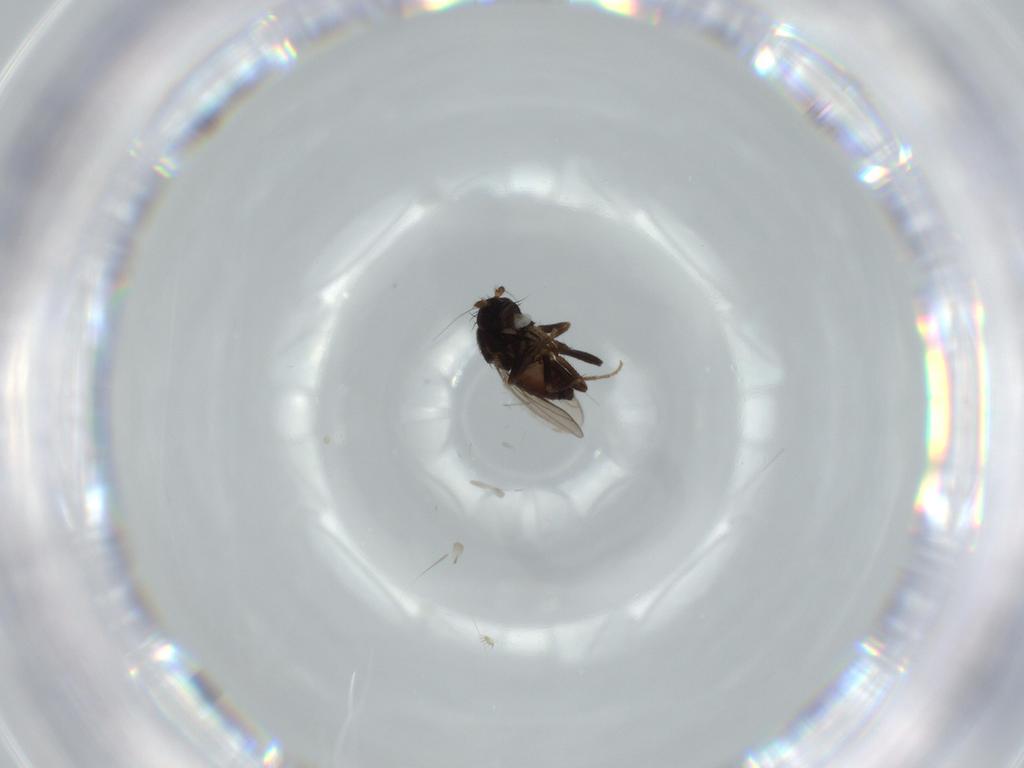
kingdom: Animalia
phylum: Arthropoda
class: Insecta
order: Diptera
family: Sphaeroceridae
